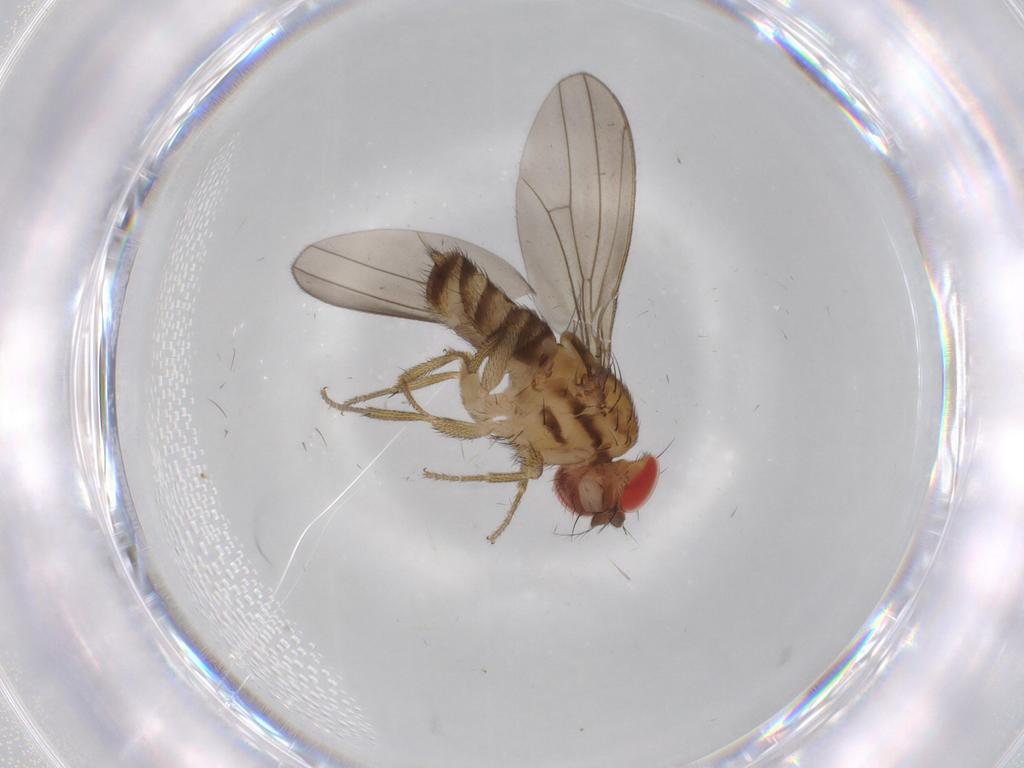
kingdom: Animalia
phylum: Arthropoda
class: Insecta
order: Diptera
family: Drosophilidae
